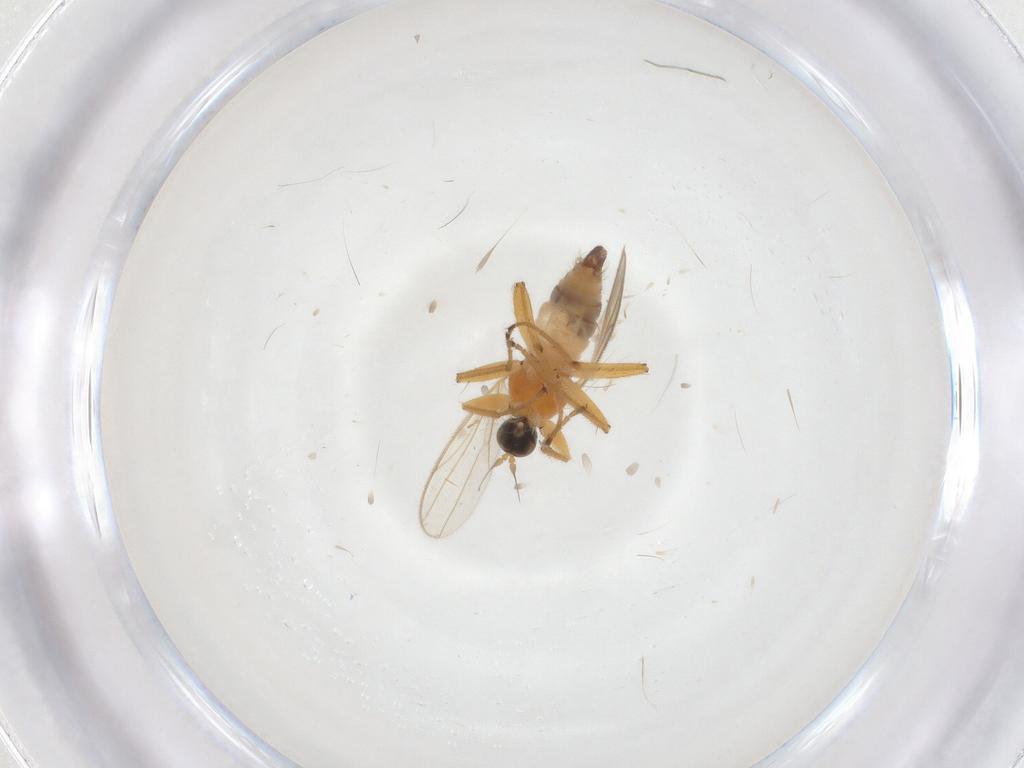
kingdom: Animalia
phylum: Arthropoda
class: Insecta
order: Diptera
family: Hybotidae
